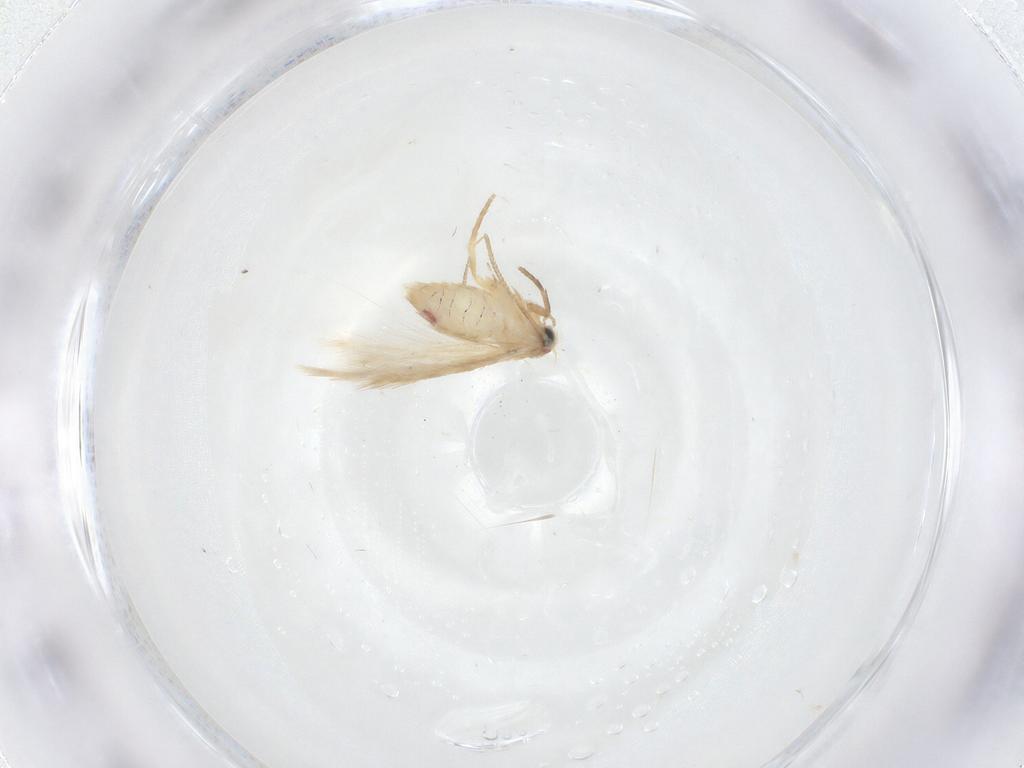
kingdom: Animalia
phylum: Arthropoda
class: Insecta
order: Lepidoptera
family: Nepticulidae
